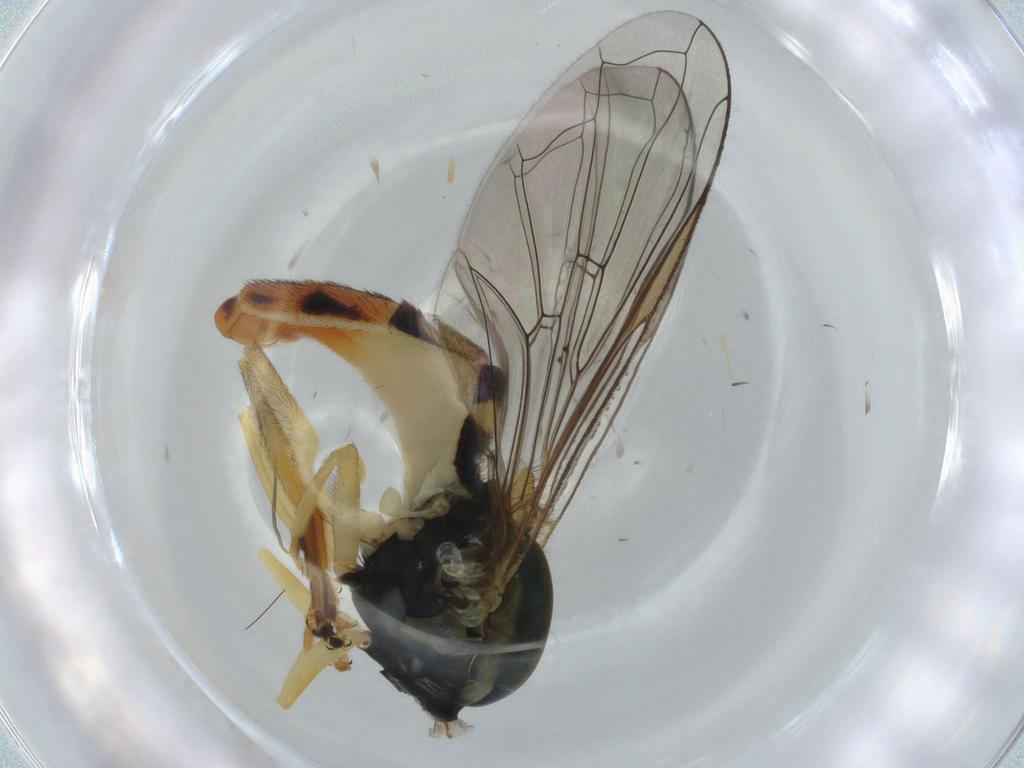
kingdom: Animalia
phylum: Arthropoda
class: Insecta
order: Diptera
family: Syrphidae
